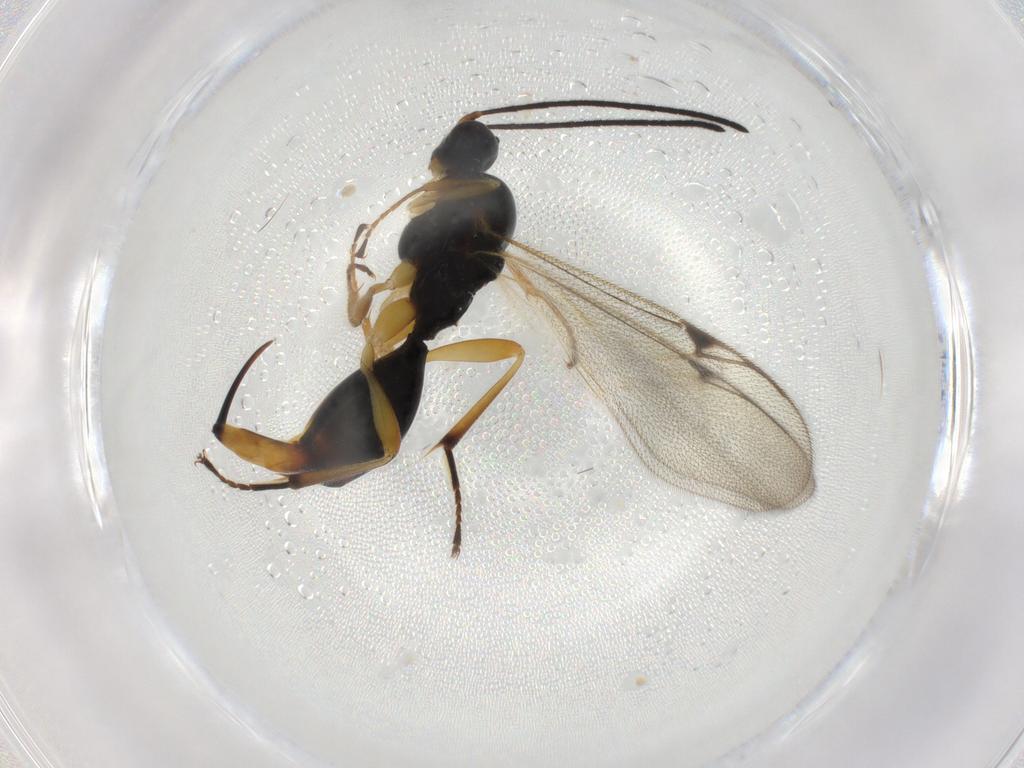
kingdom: Animalia
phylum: Arthropoda
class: Insecta
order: Hymenoptera
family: Proctotrupidae
